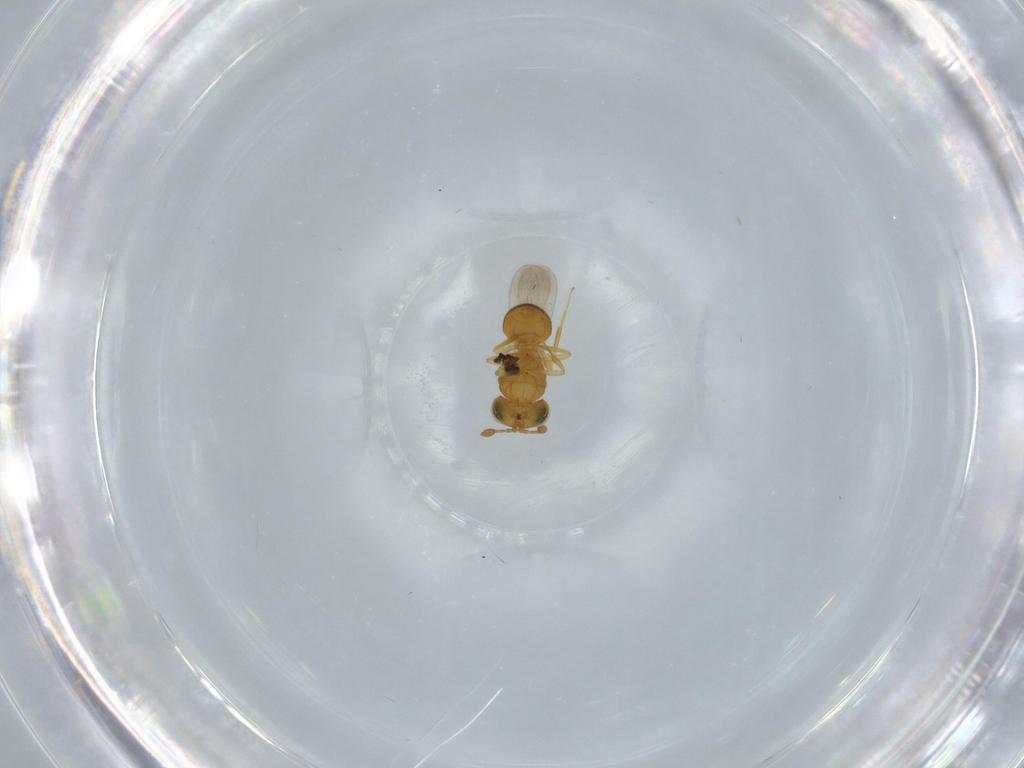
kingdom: Animalia
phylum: Arthropoda
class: Insecta
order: Hymenoptera
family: Scelionidae
